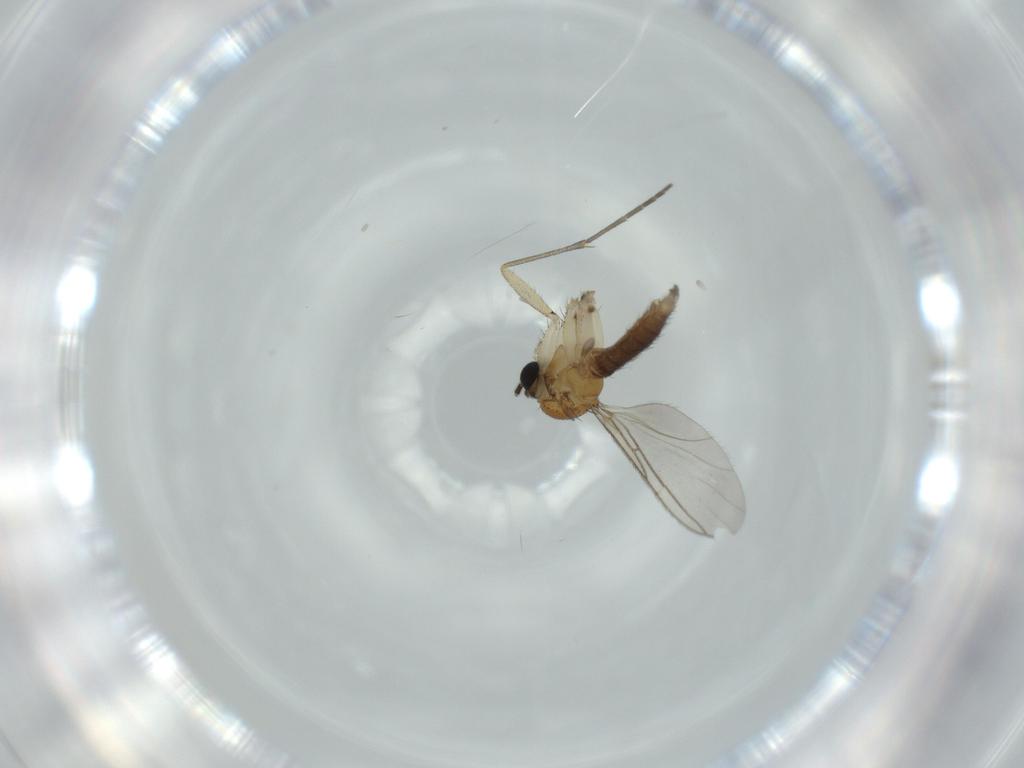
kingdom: Animalia
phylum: Arthropoda
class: Insecta
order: Diptera
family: Sciaridae
